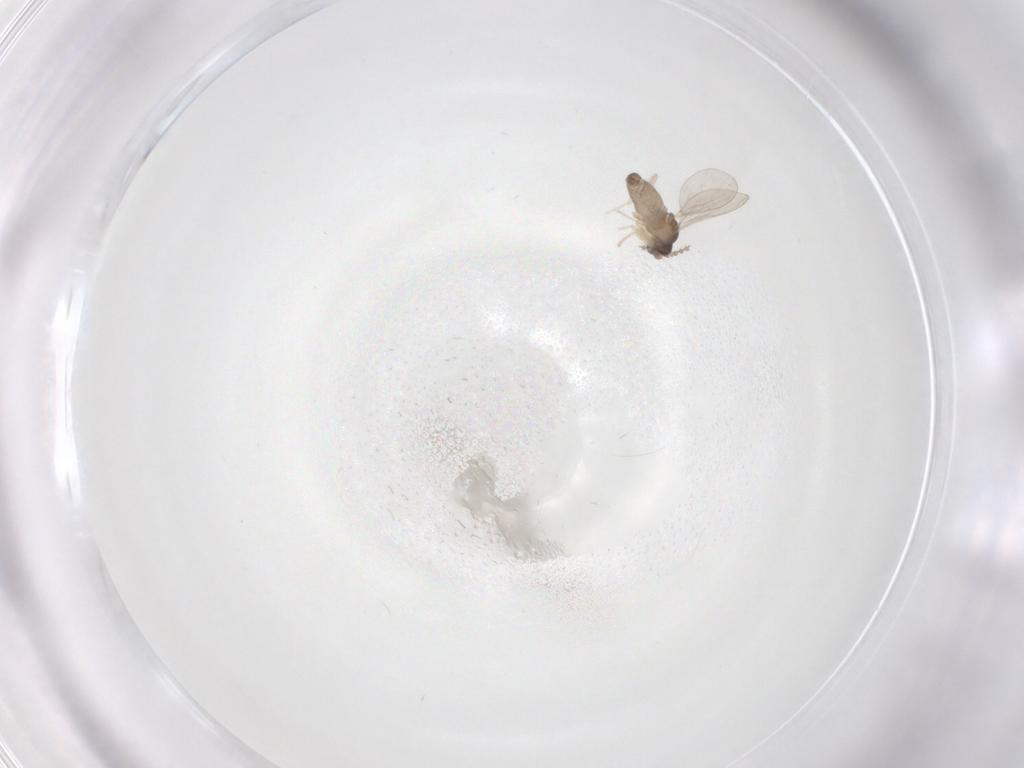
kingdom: Animalia
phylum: Arthropoda
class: Insecta
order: Diptera
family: Cecidomyiidae
